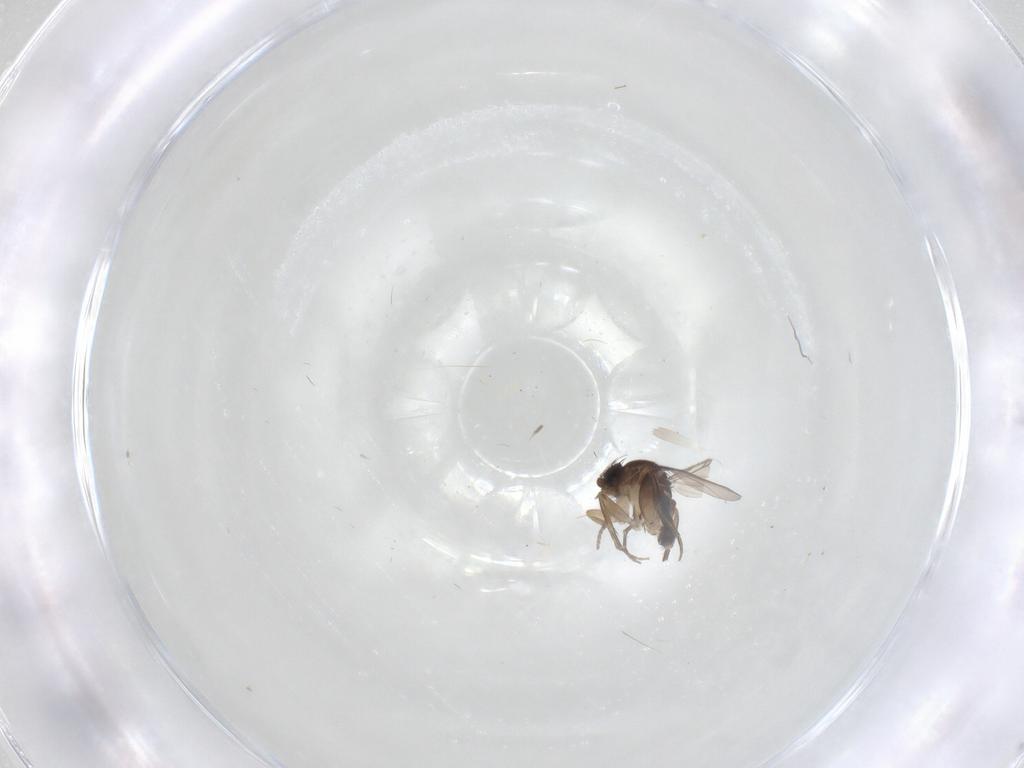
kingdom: Animalia
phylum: Arthropoda
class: Insecta
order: Diptera
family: Phoridae
